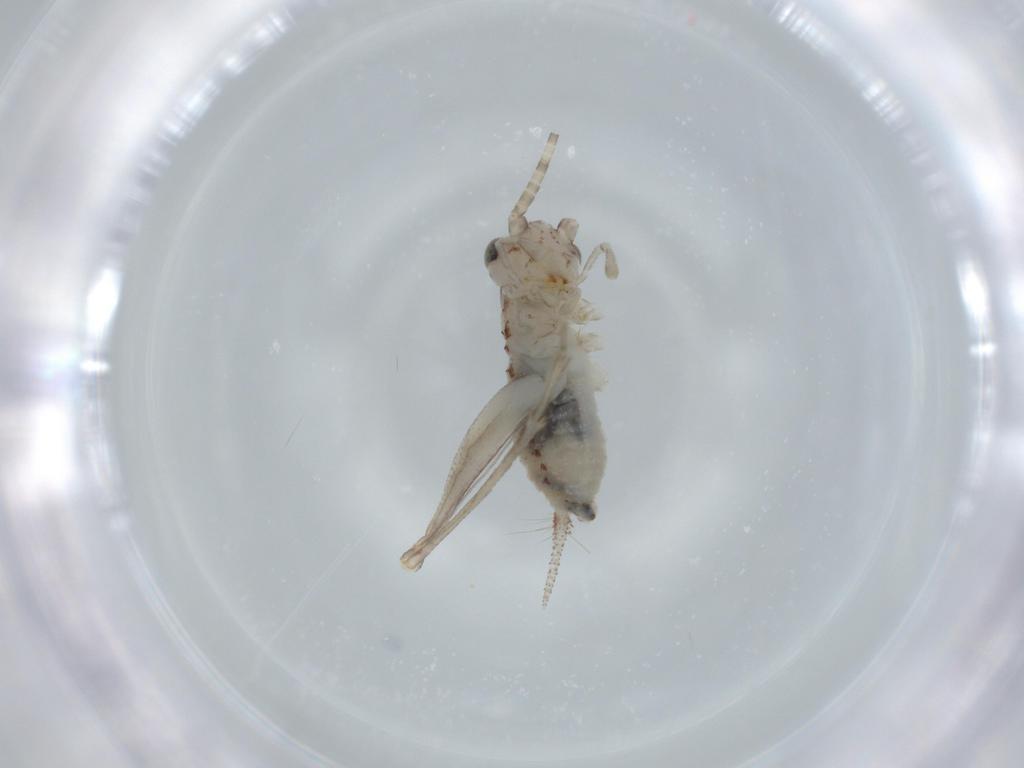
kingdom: Animalia
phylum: Arthropoda
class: Insecta
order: Orthoptera
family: Trigonidiidae
